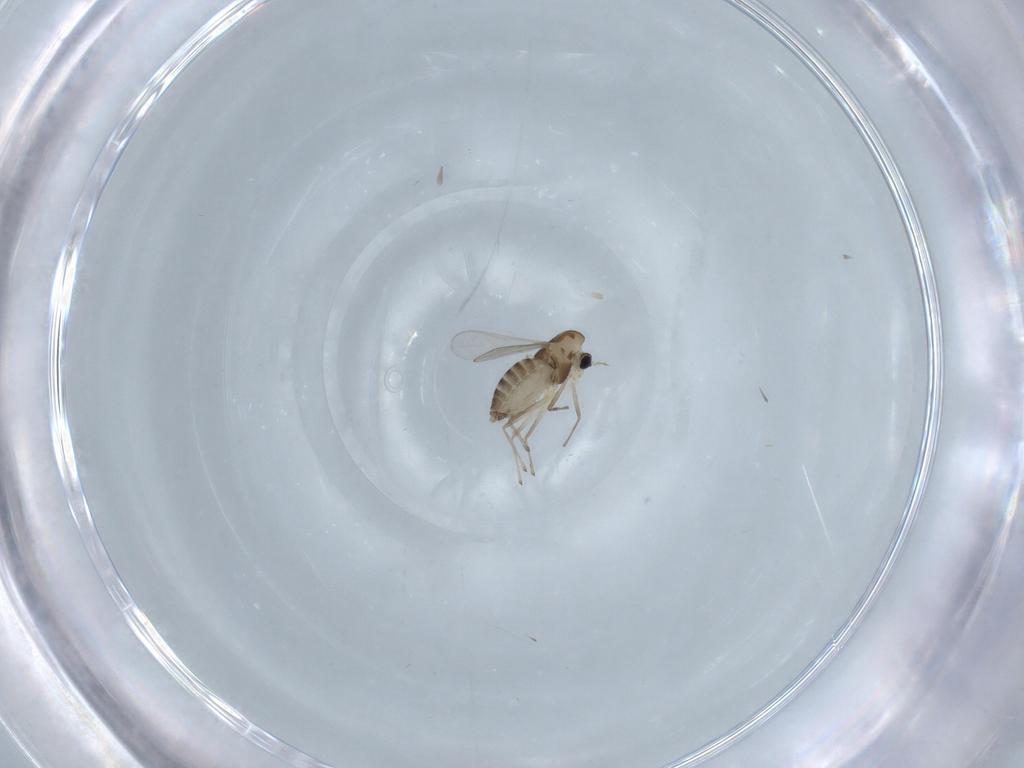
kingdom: Animalia
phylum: Arthropoda
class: Insecta
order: Diptera
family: Chironomidae
